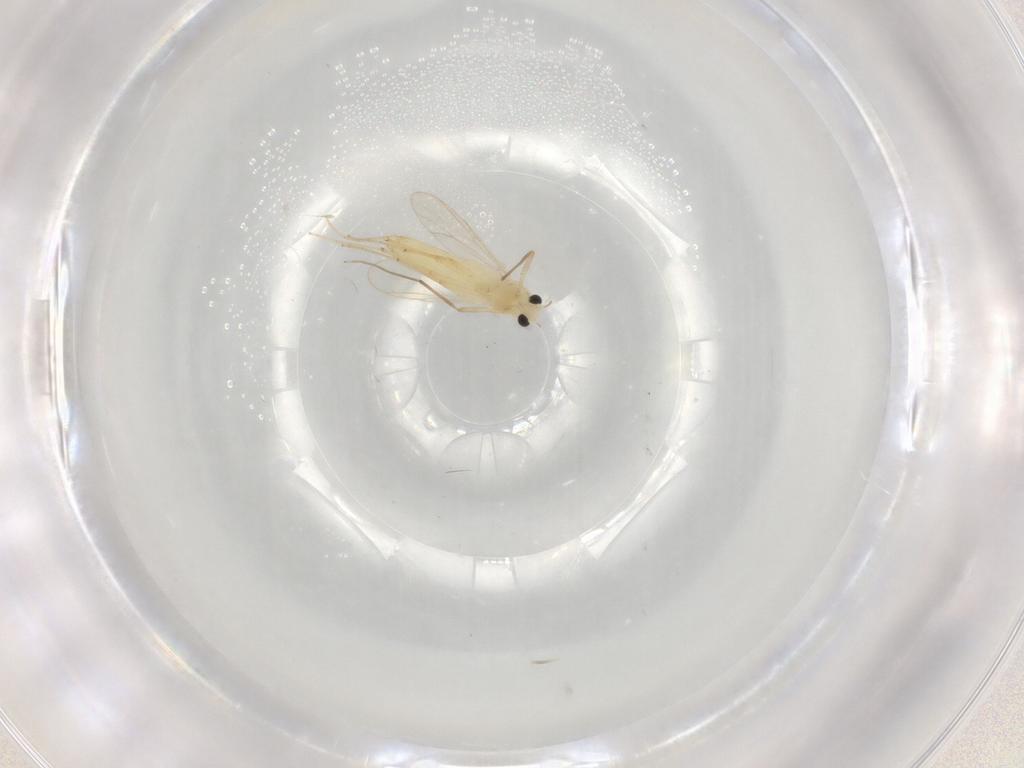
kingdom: Animalia
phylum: Arthropoda
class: Insecta
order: Diptera
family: Chironomidae
